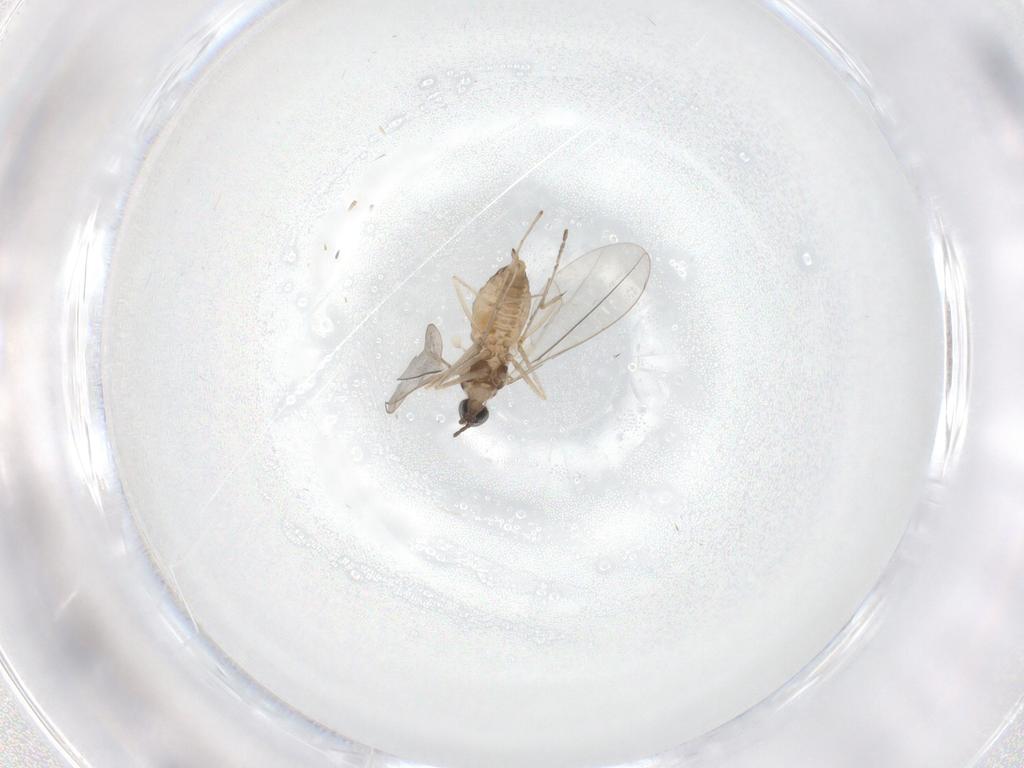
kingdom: Animalia
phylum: Arthropoda
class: Insecta
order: Diptera
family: Cecidomyiidae
